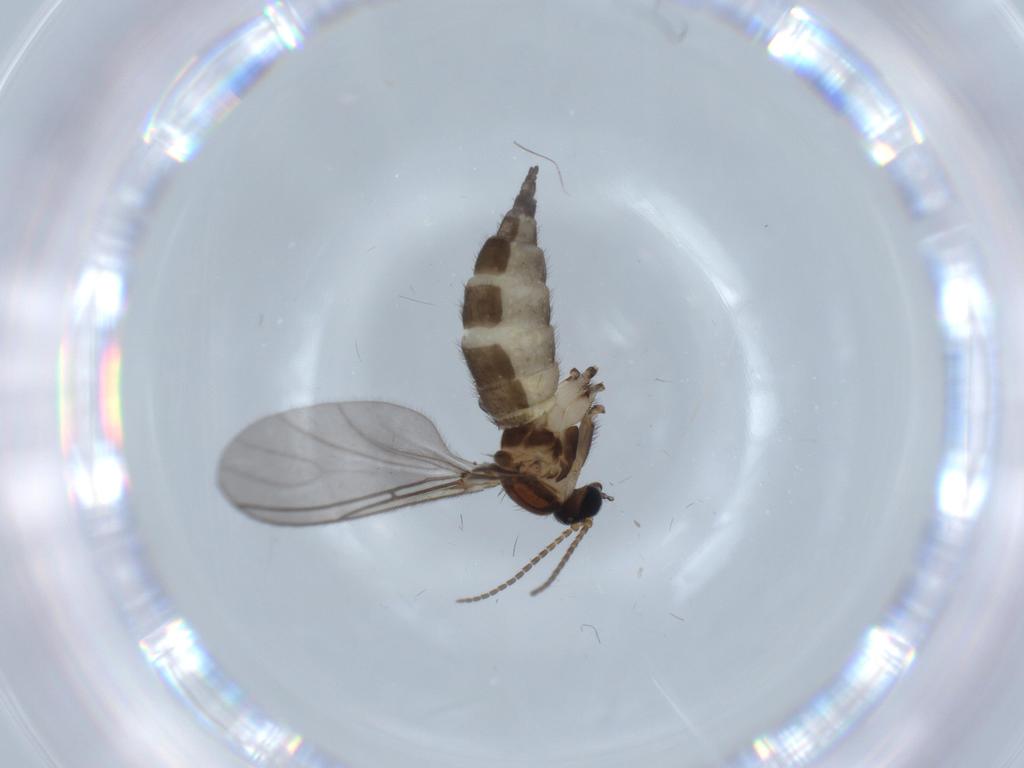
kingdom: Animalia
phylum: Arthropoda
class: Insecta
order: Diptera
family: Sciaridae
